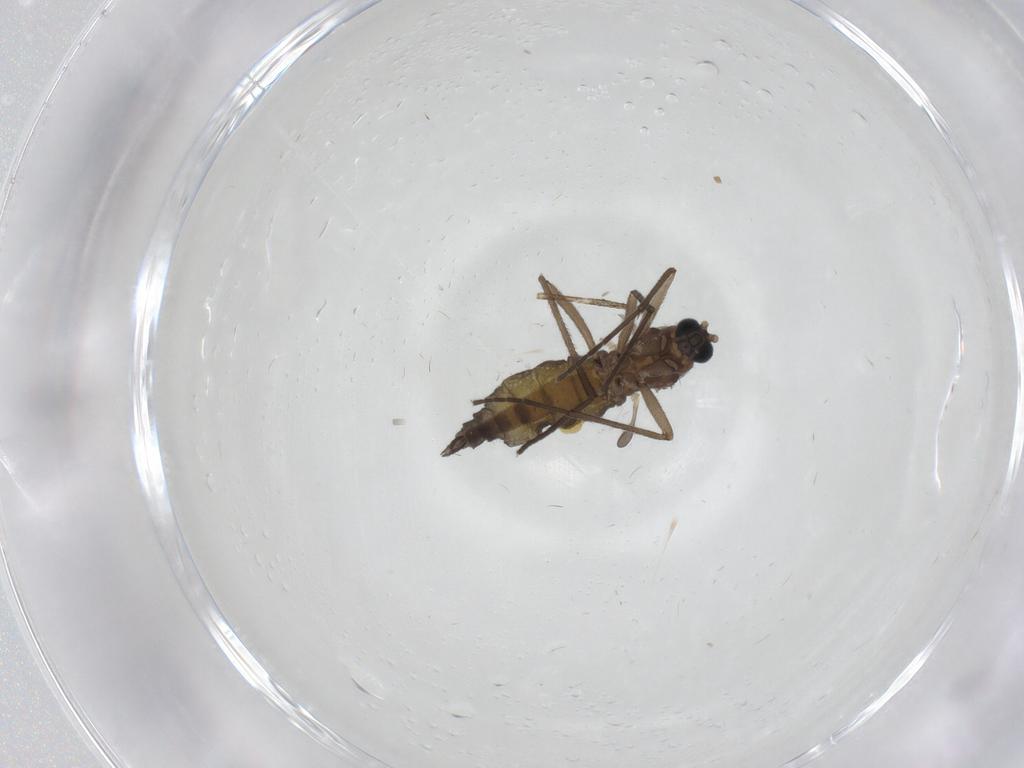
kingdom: Animalia
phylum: Arthropoda
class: Insecta
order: Diptera
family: Sciaridae
